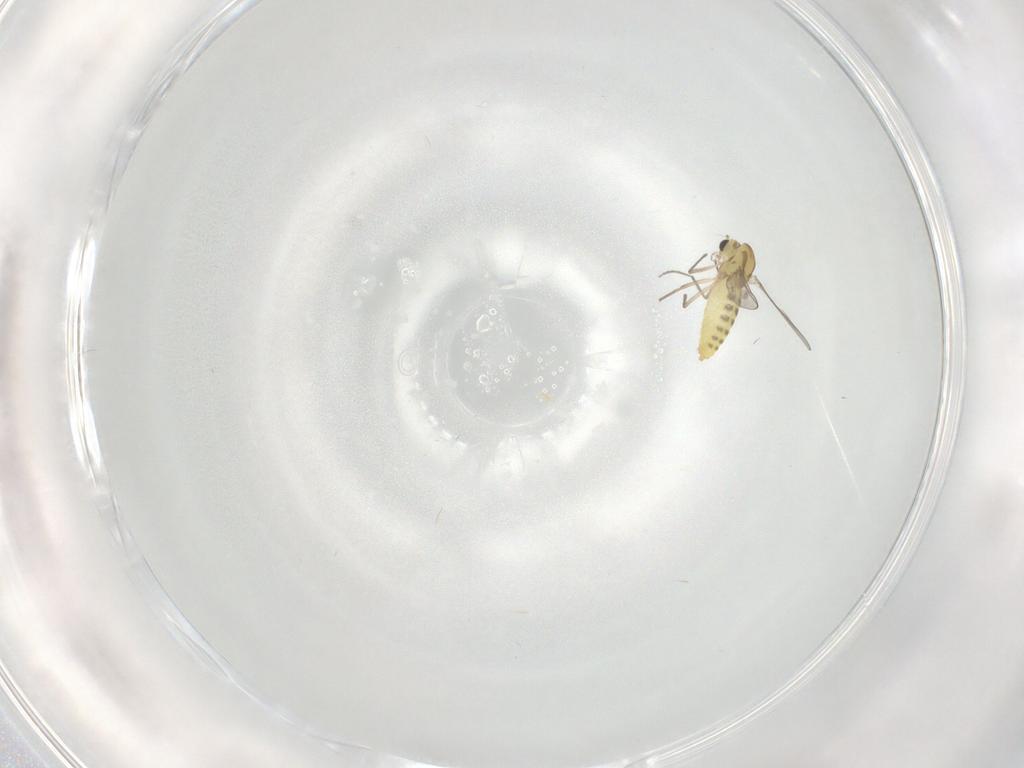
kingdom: Animalia
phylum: Arthropoda
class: Insecta
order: Diptera
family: Chironomidae
